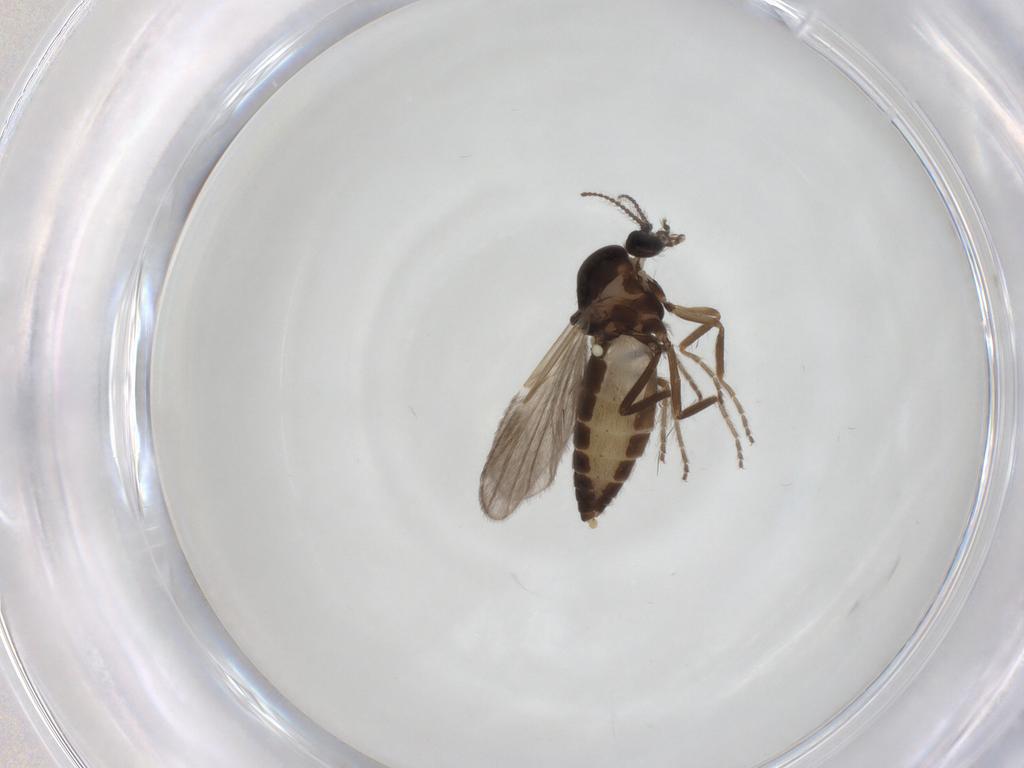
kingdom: Animalia
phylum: Arthropoda
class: Insecta
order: Diptera
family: Ceratopogonidae
